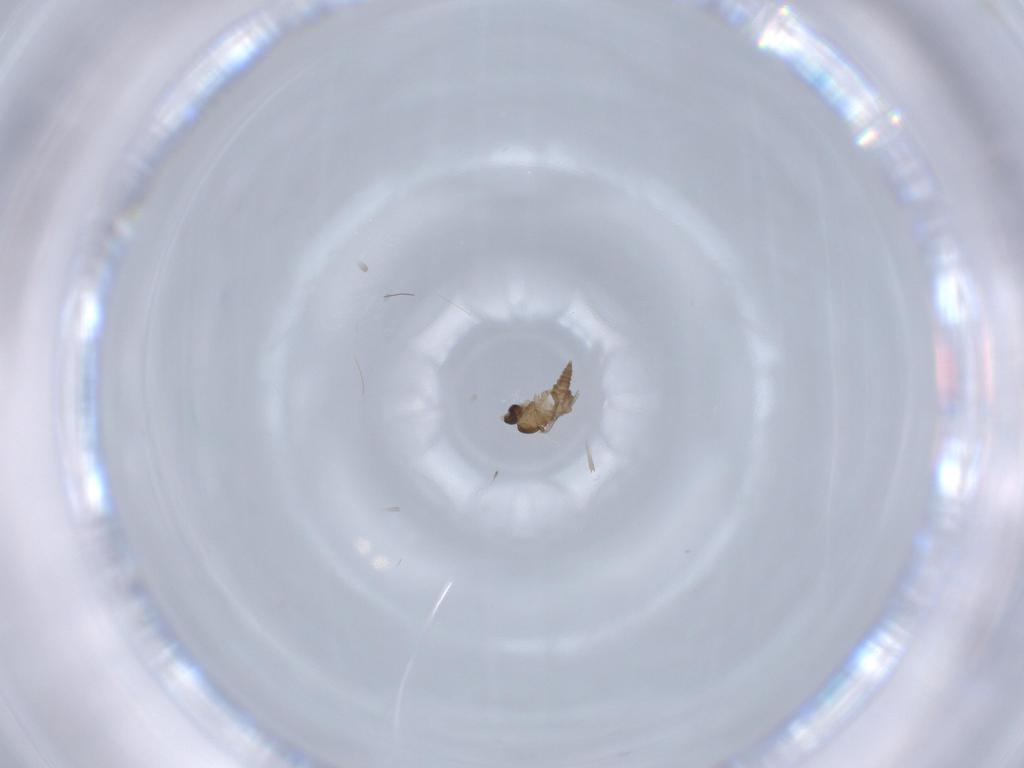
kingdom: Animalia
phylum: Arthropoda
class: Insecta
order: Diptera
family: Cecidomyiidae
